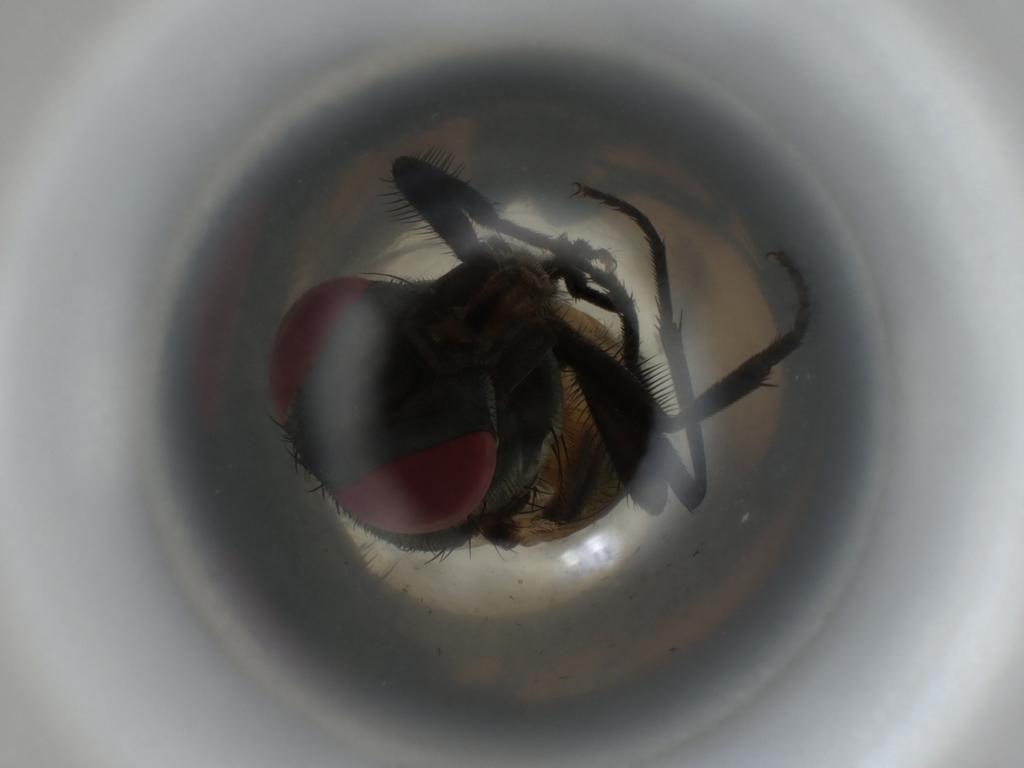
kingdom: Animalia
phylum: Arthropoda
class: Insecta
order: Diptera
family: Muscidae
